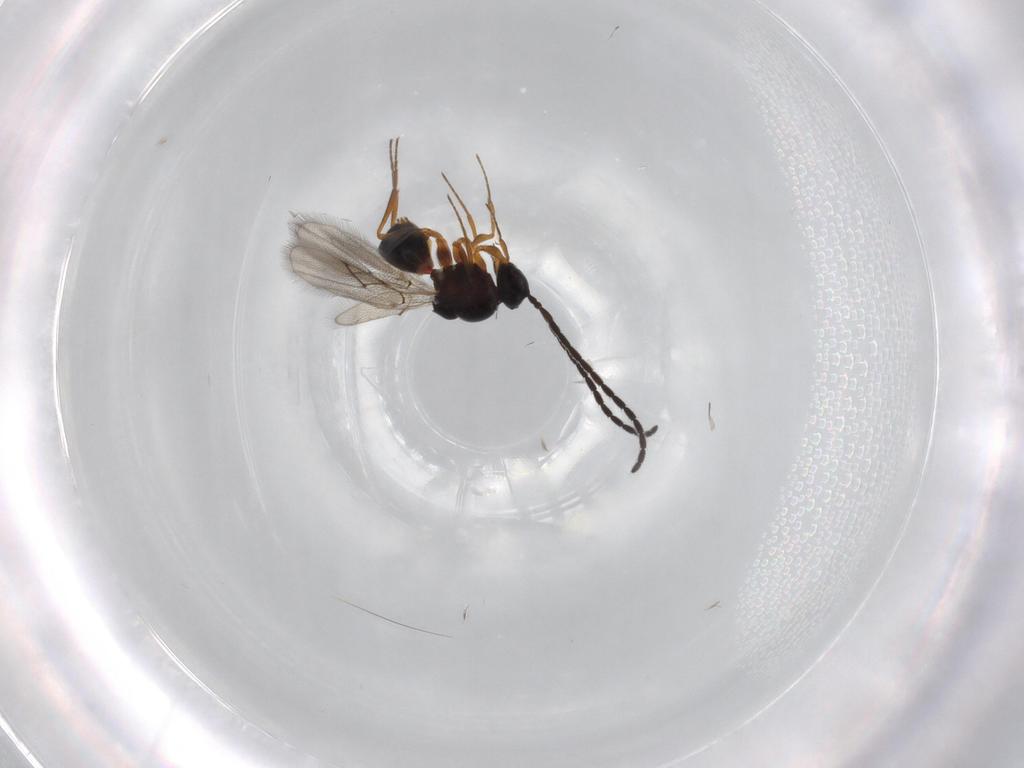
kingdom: Animalia
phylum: Arthropoda
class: Insecta
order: Hymenoptera
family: Figitidae
